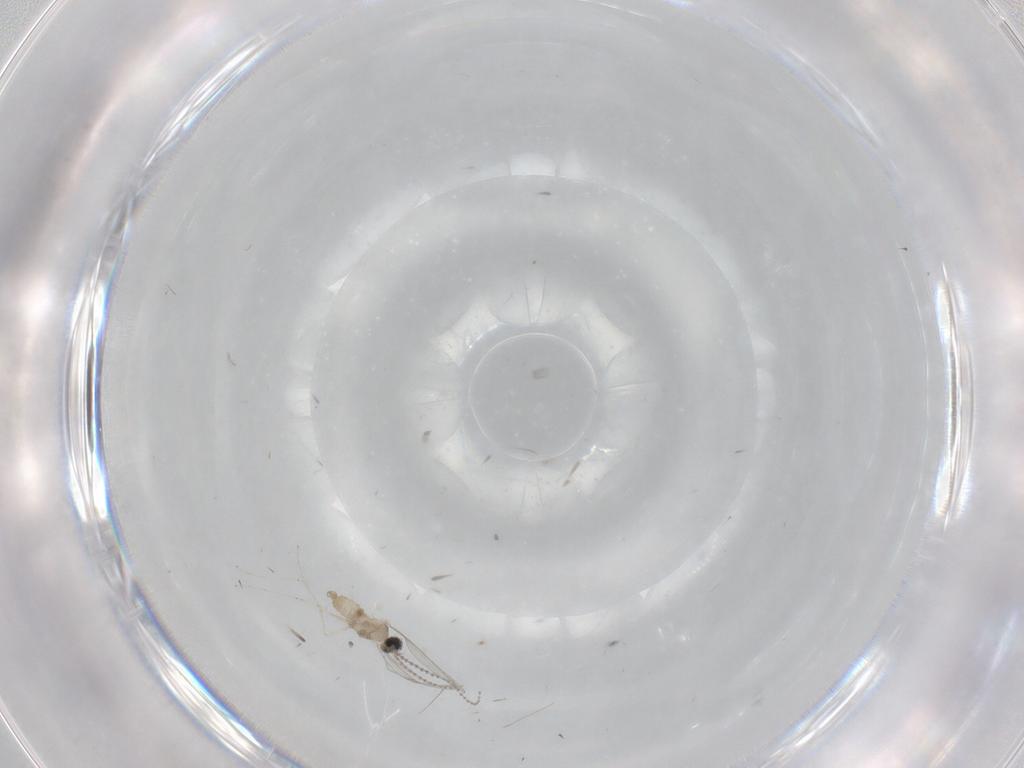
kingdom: Animalia
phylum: Arthropoda
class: Insecta
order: Diptera
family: Cecidomyiidae
